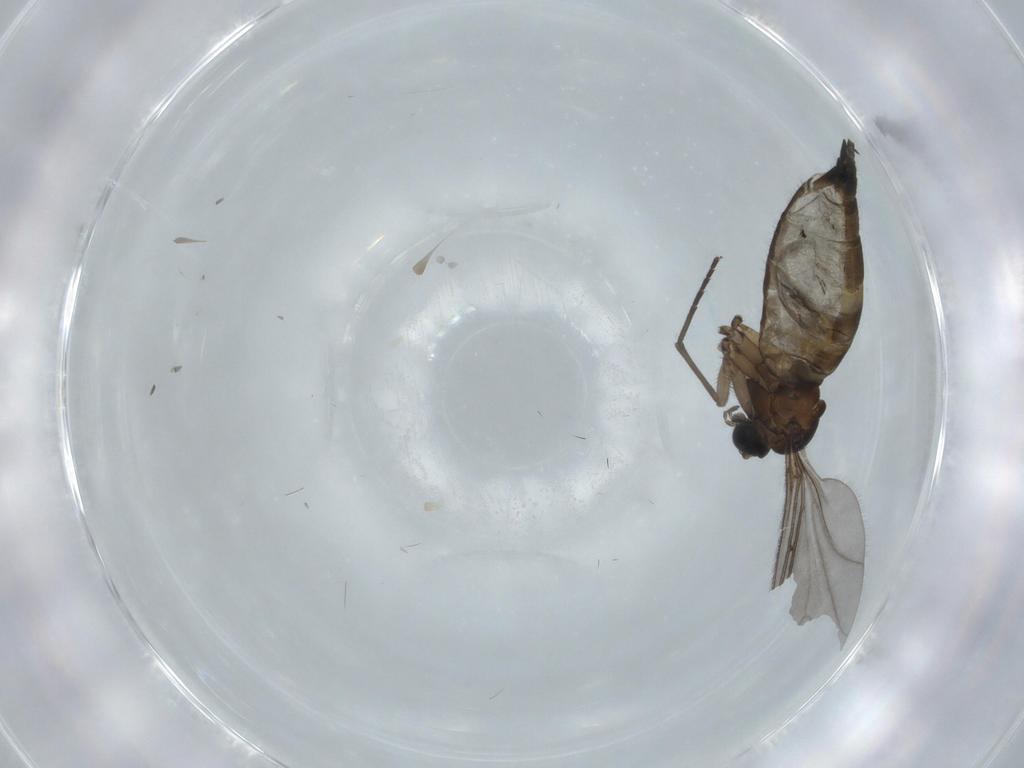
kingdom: Animalia
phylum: Arthropoda
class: Insecta
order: Diptera
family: Sciaridae
